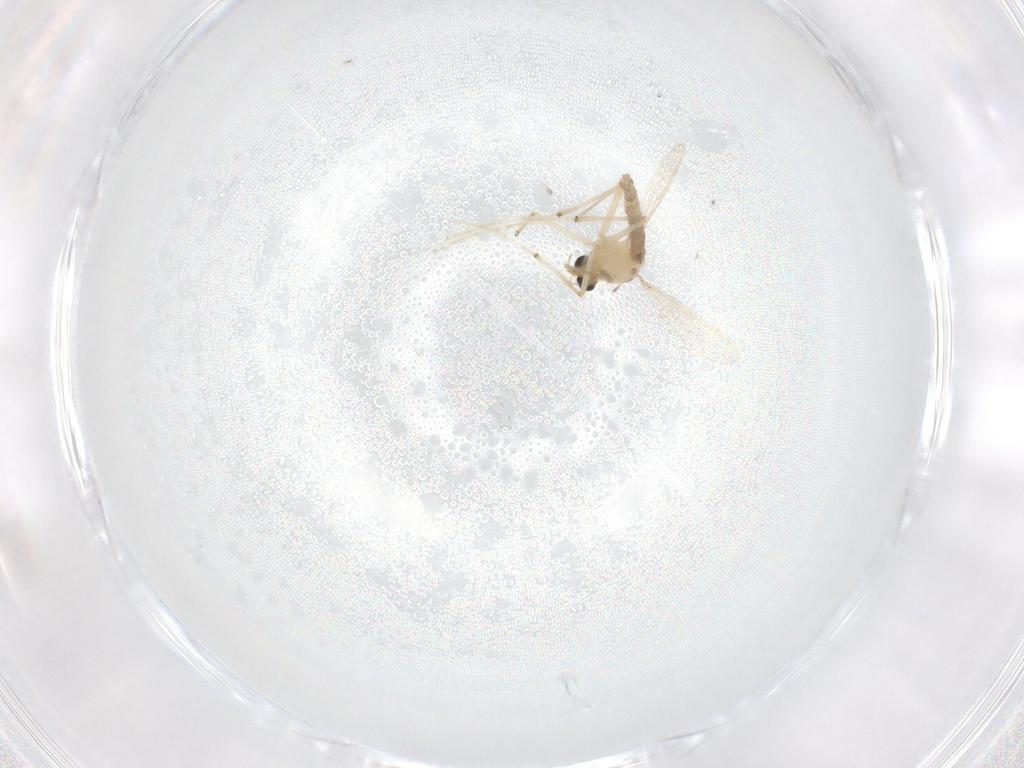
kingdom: Animalia
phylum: Arthropoda
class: Insecta
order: Diptera
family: Chironomidae
